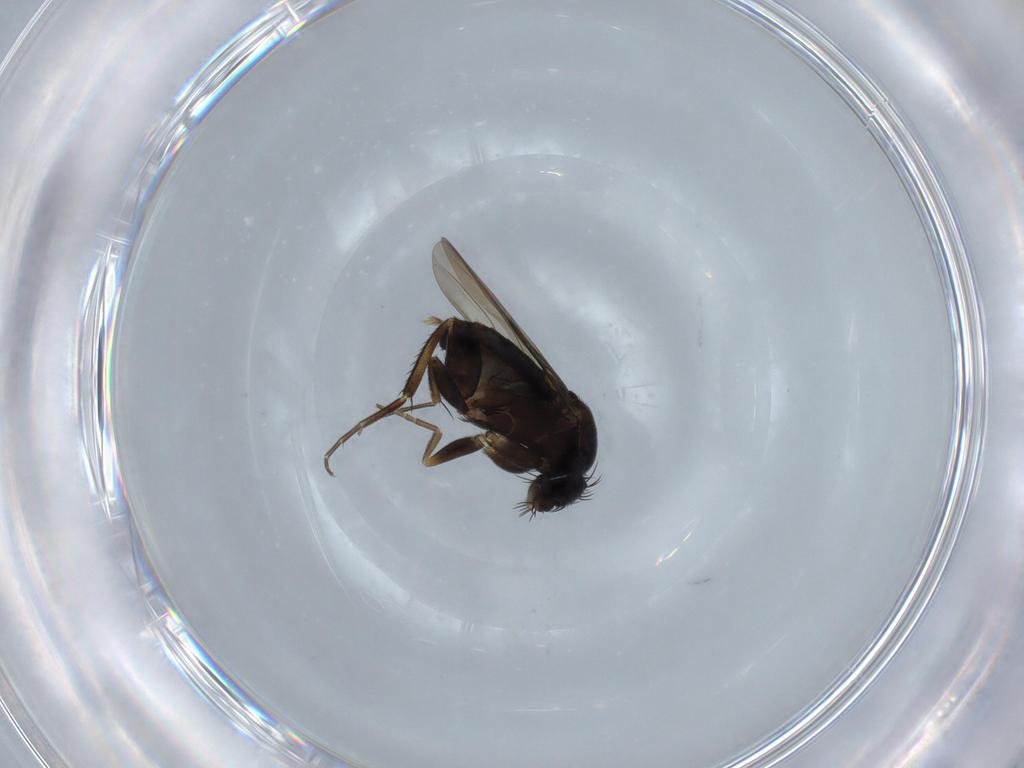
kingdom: Animalia
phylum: Arthropoda
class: Insecta
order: Diptera
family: Phoridae
